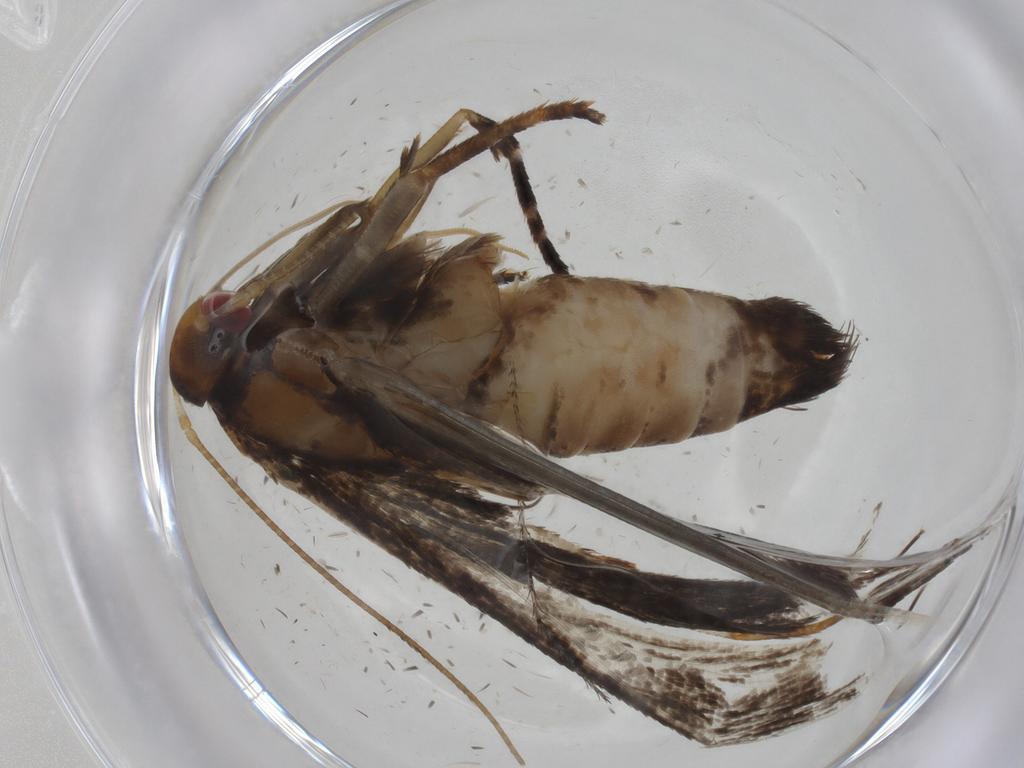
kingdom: Animalia
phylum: Arthropoda
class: Insecta
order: Lepidoptera
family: Gelechiidae
